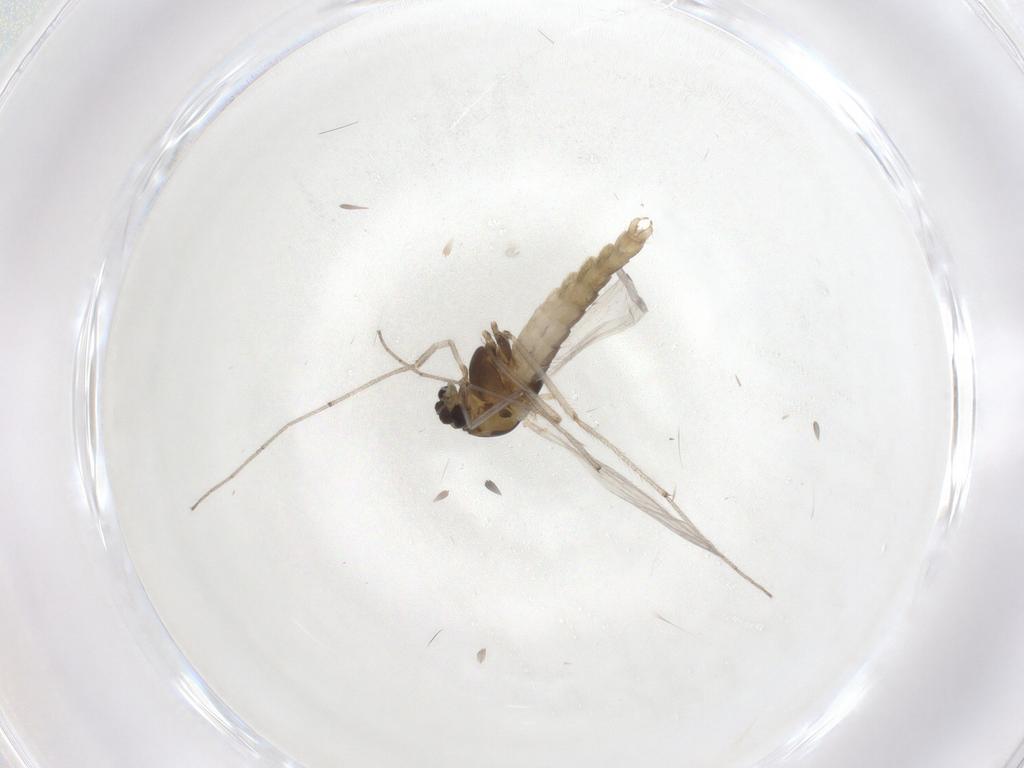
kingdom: Animalia
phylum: Arthropoda
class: Insecta
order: Diptera
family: Chironomidae
